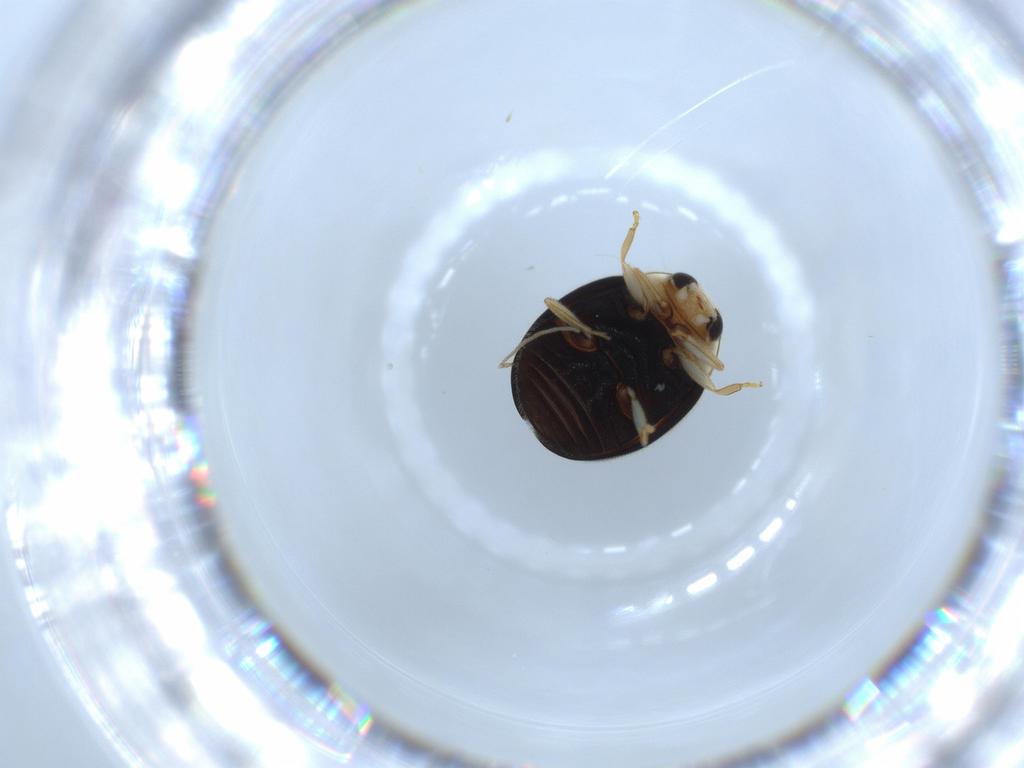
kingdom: Animalia
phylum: Arthropoda
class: Insecta
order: Coleoptera
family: Coccinellidae
